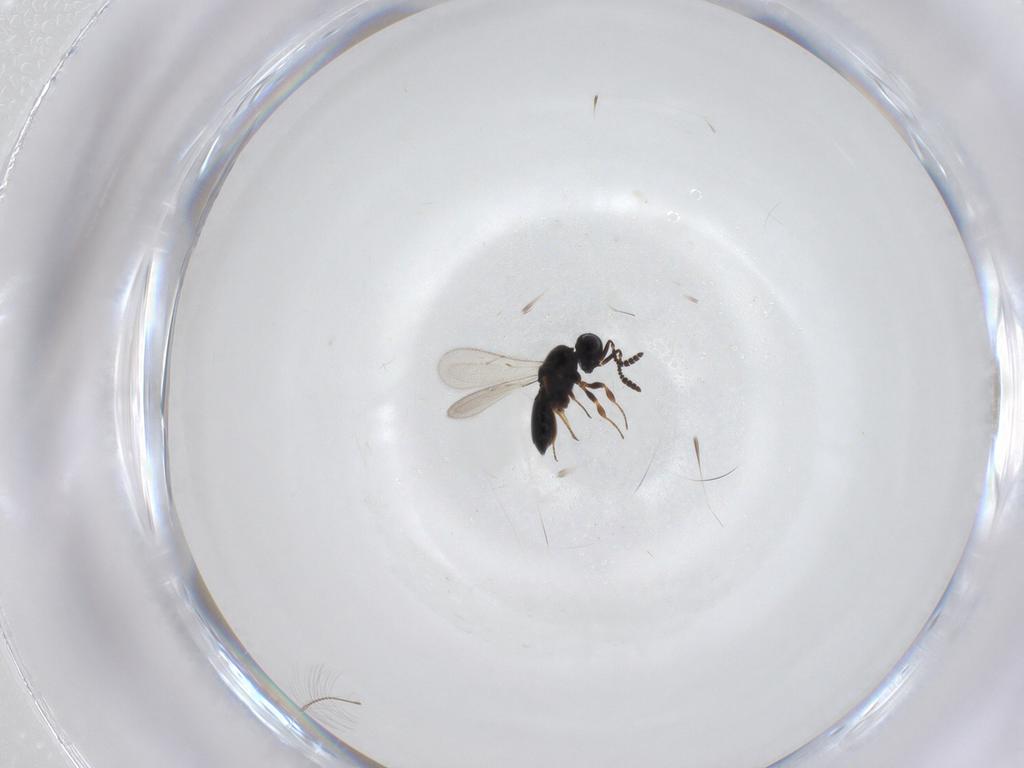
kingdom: Animalia
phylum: Arthropoda
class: Insecta
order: Hymenoptera
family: Scelionidae
